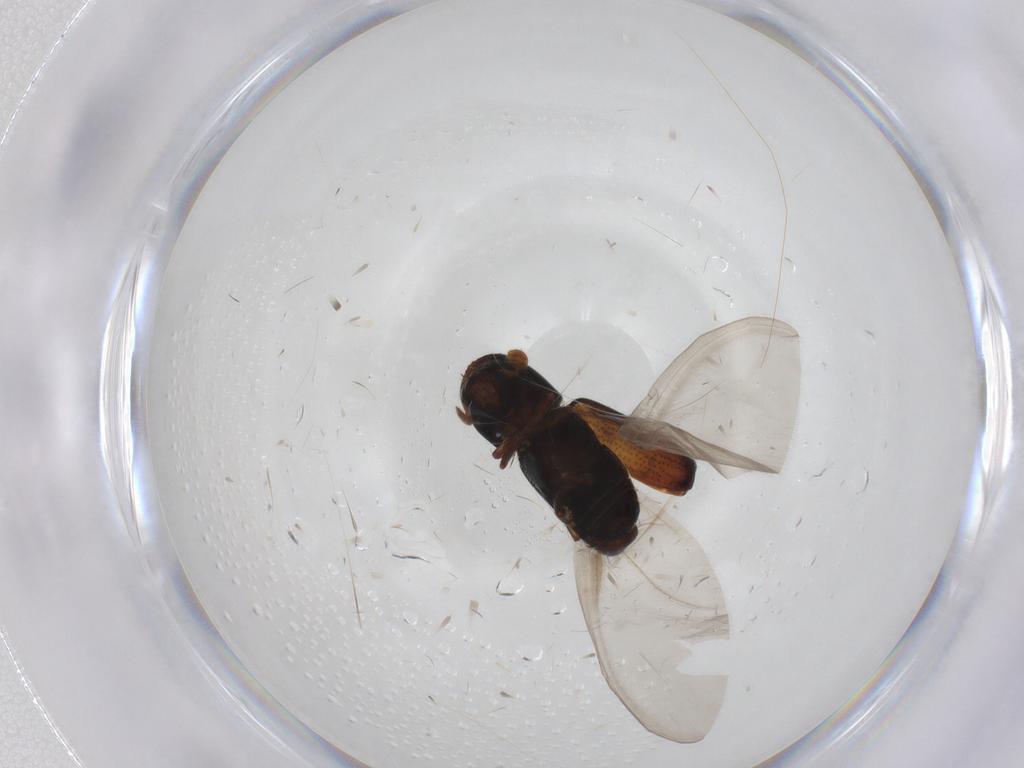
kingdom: Animalia
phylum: Arthropoda
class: Insecta
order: Coleoptera
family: Curculionidae
